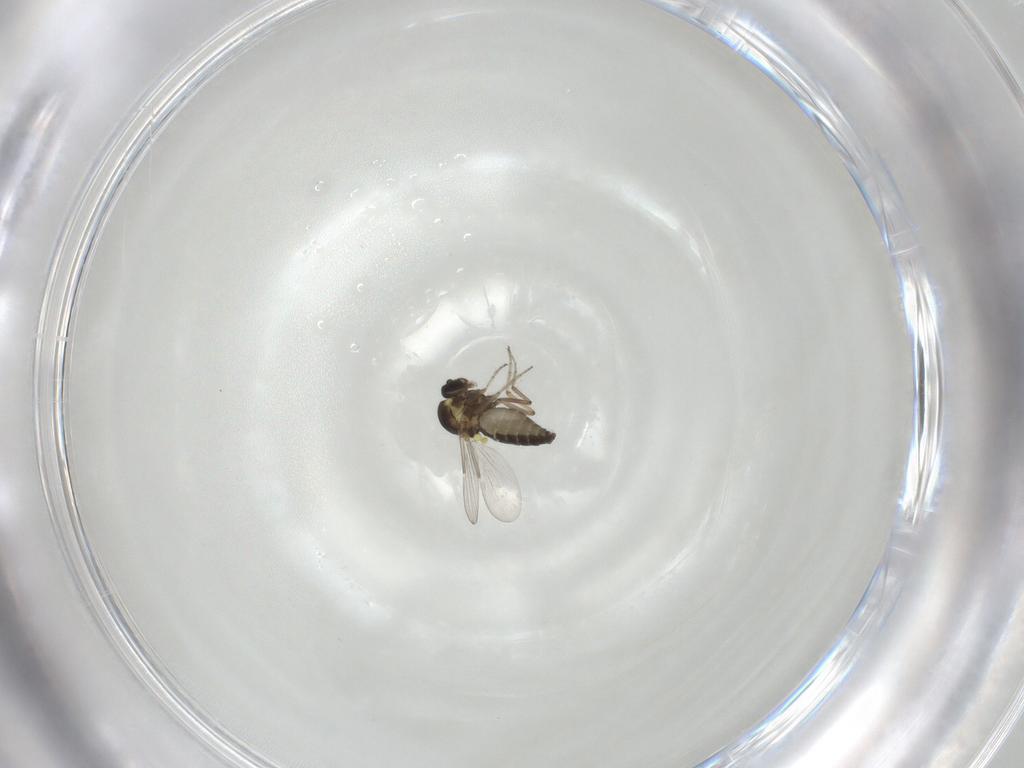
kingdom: Animalia
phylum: Arthropoda
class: Insecta
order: Diptera
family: Ceratopogonidae
